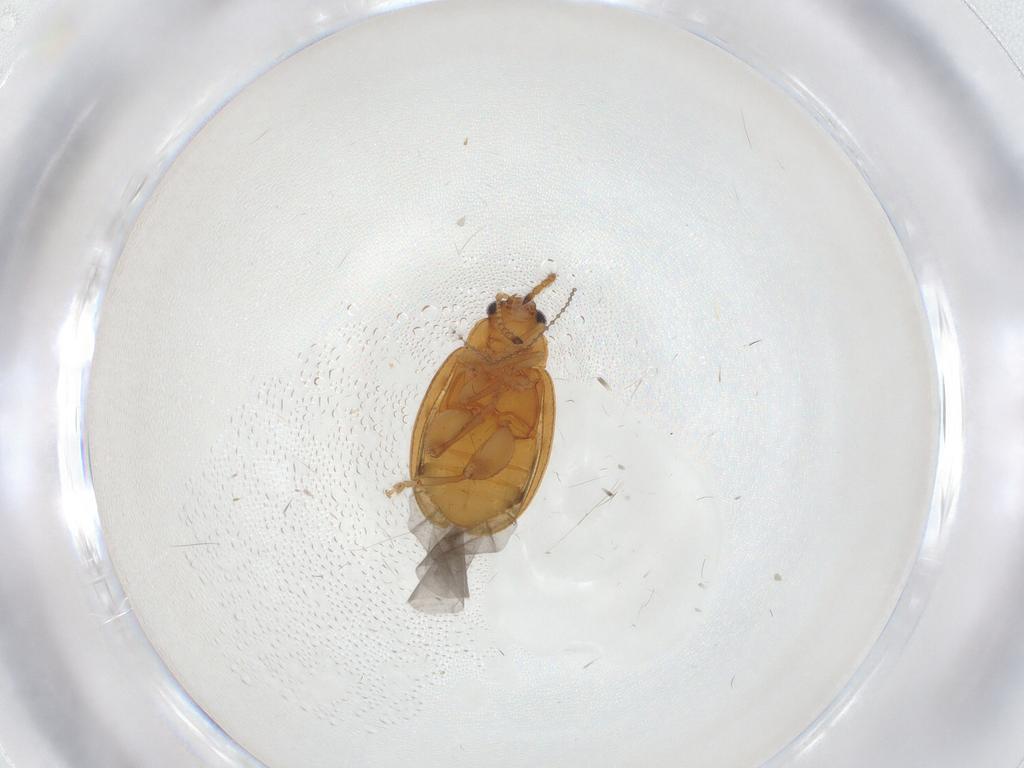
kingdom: Animalia
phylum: Arthropoda
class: Insecta
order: Coleoptera
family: Chrysomelidae
